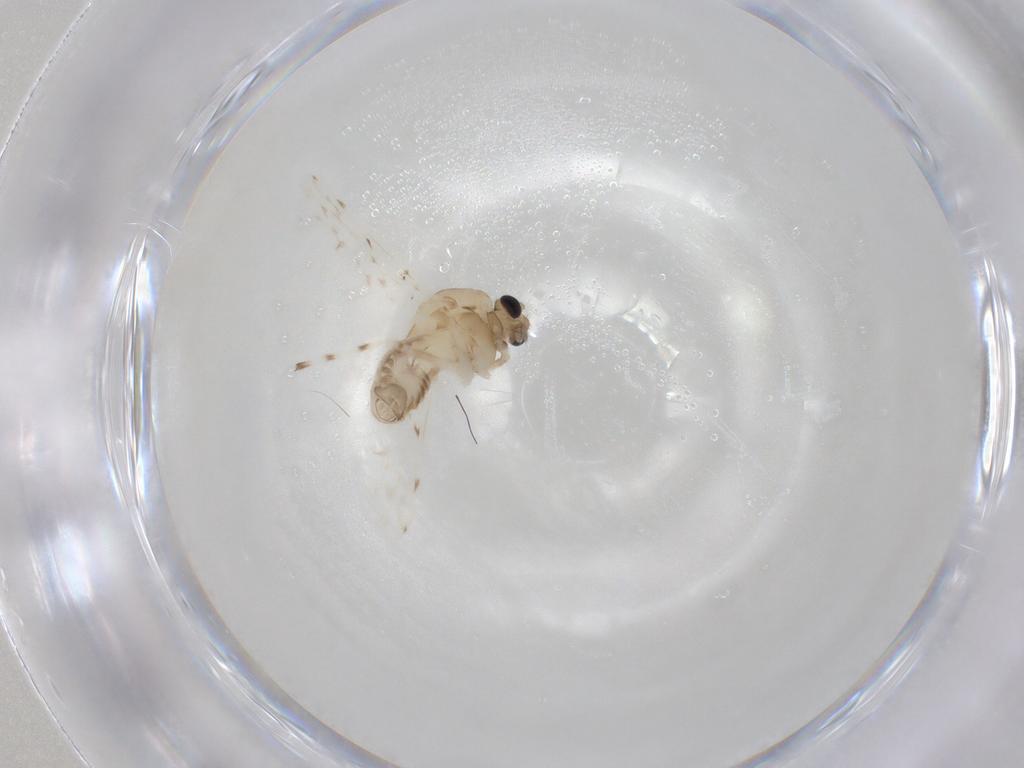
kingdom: Animalia
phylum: Arthropoda
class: Insecta
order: Diptera
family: Chironomidae
